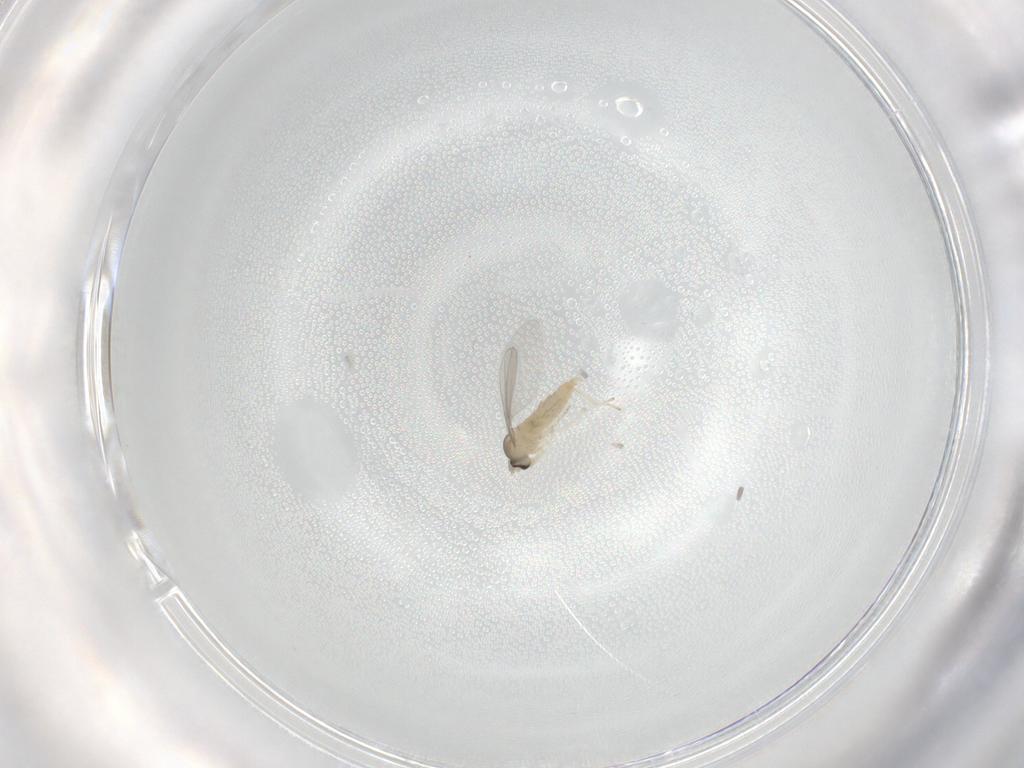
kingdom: Animalia
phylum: Arthropoda
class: Insecta
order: Diptera
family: Cecidomyiidae
